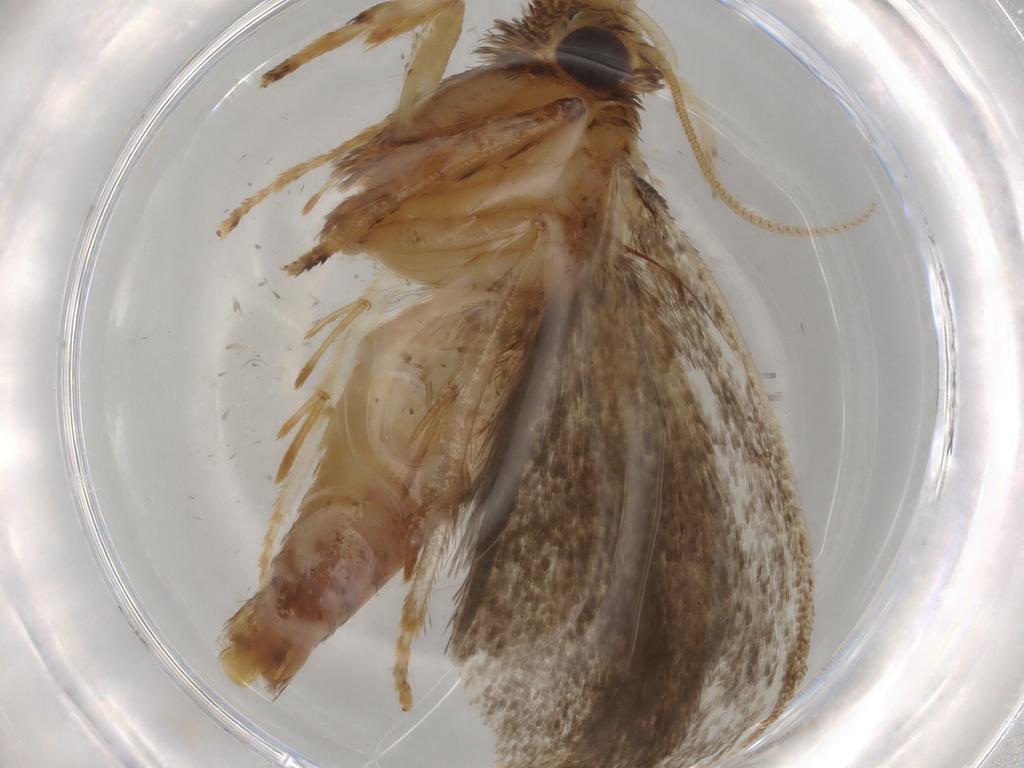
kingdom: Animalia
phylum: Arthropoda
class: Insecta
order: Lepidoptera
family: Tineidae
